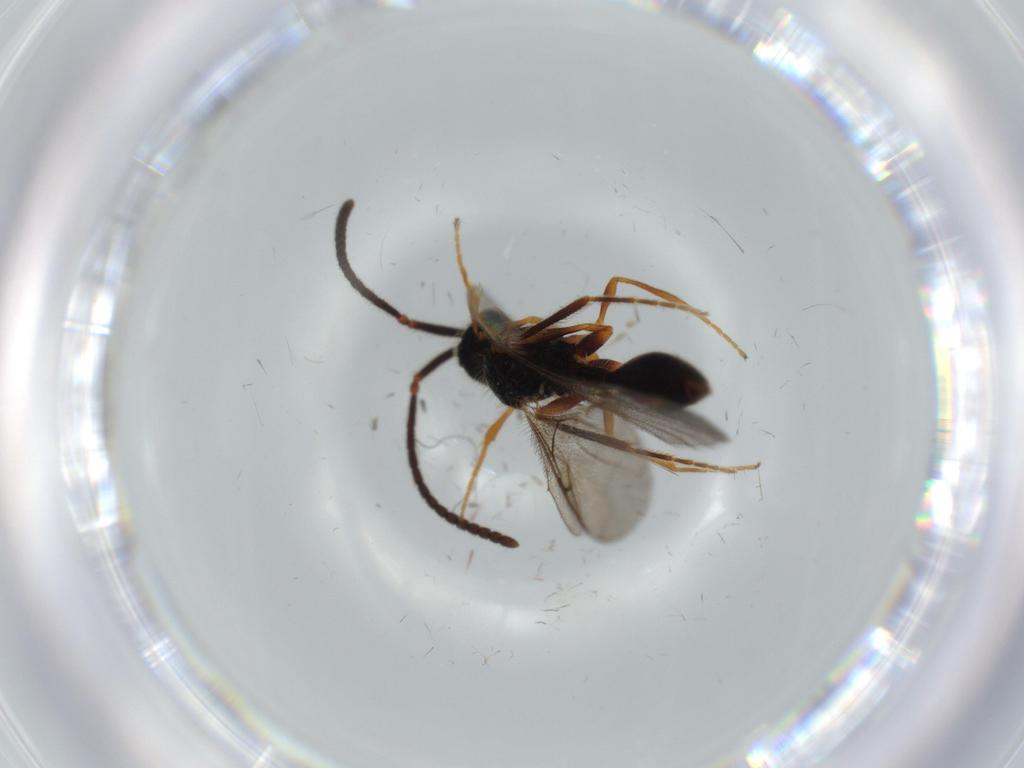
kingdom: Animalia
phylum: Arthropoda
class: Insecta
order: Hymenoptera
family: Diapriidae
